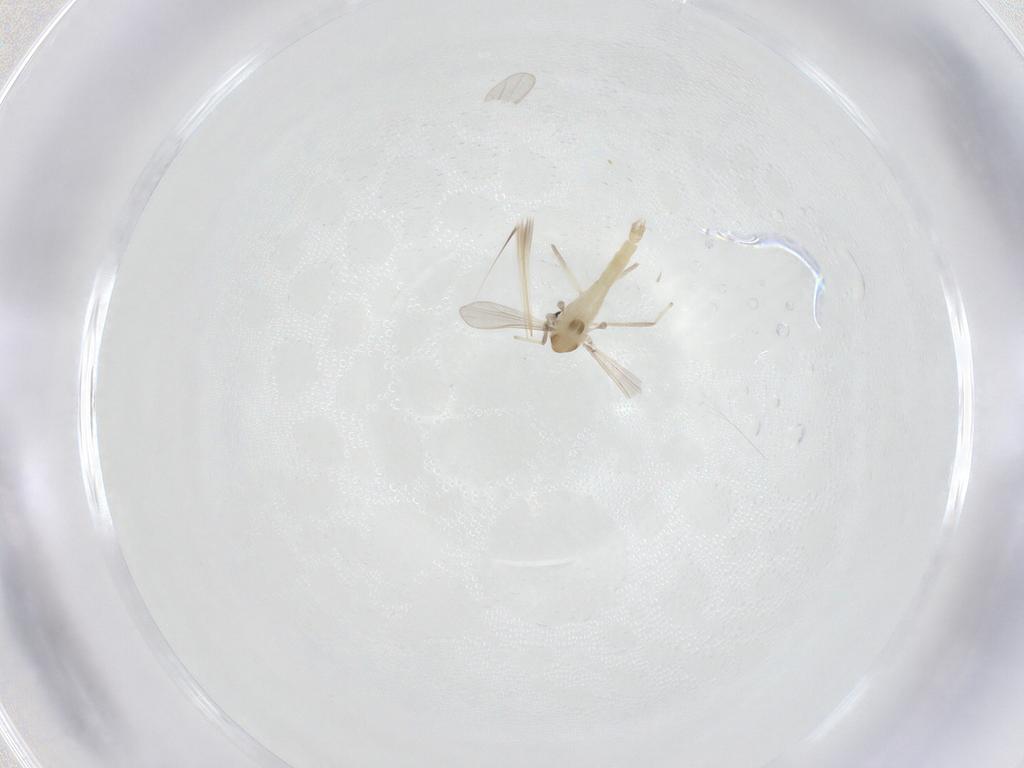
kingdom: Animalia
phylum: Arthropoda
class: Insecta
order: Diptera
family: Chironomidae
